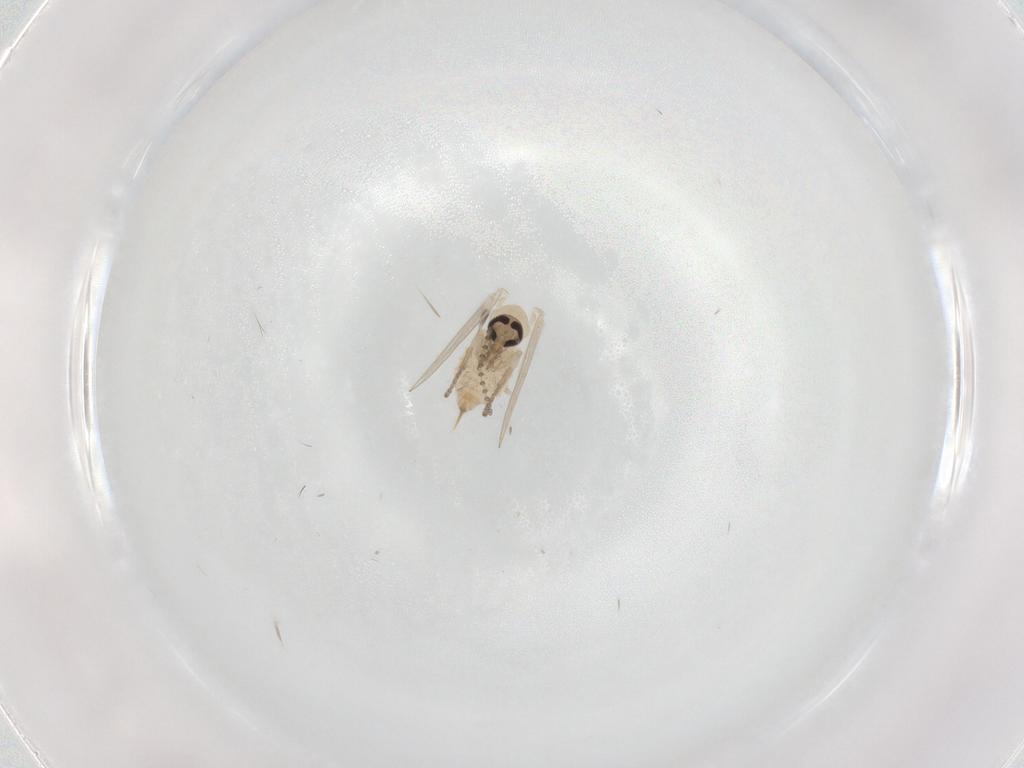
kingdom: Animalia
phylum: Arthropoda
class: Insecta
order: Diptera
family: Psychodidae
